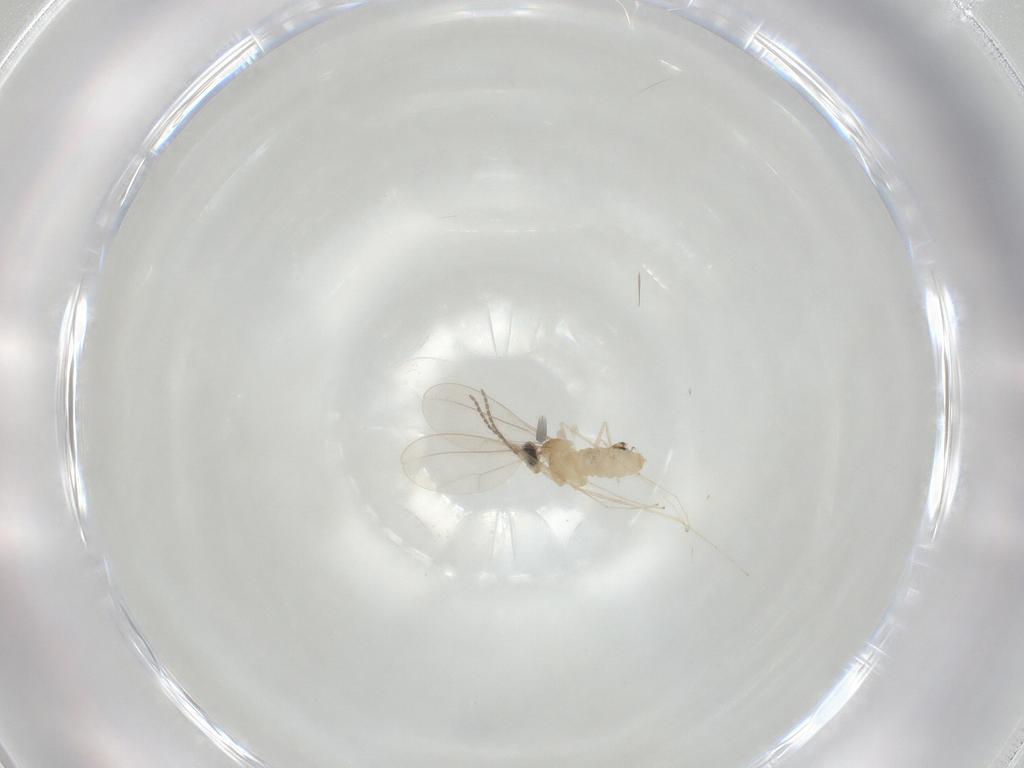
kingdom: Animalia
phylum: Arthropoda
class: Insecta
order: Diptera
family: Cecidomyiidae
